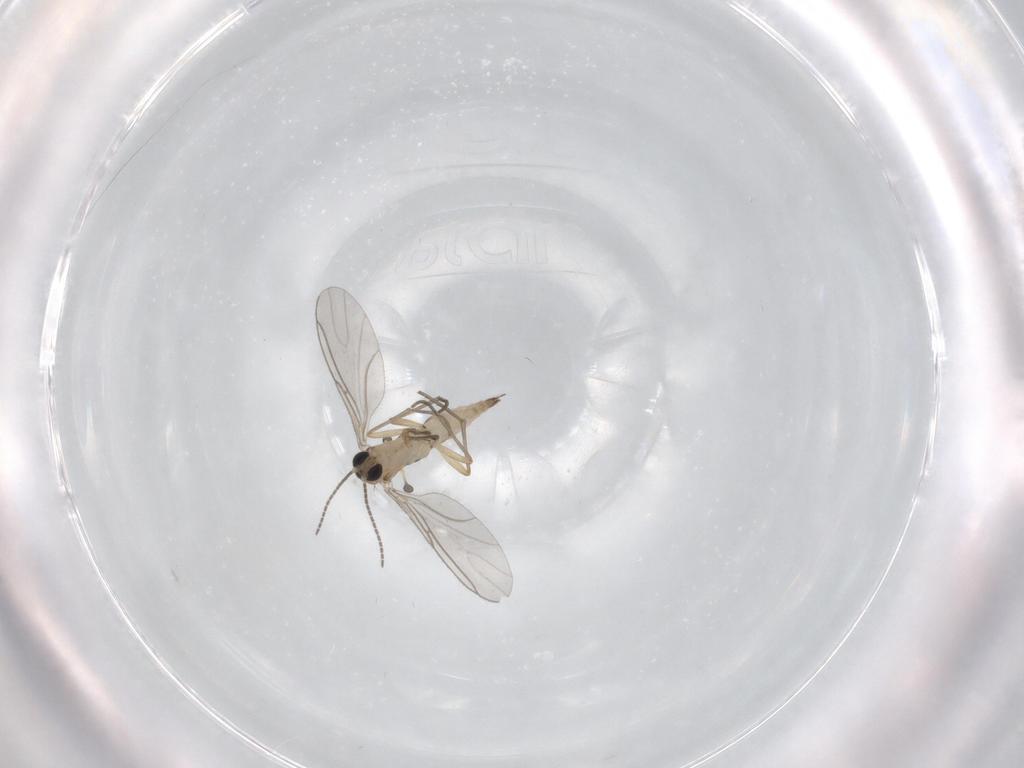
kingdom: Animalia
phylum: Arthropoda
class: Insecta
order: Diptera
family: Sciaridae
